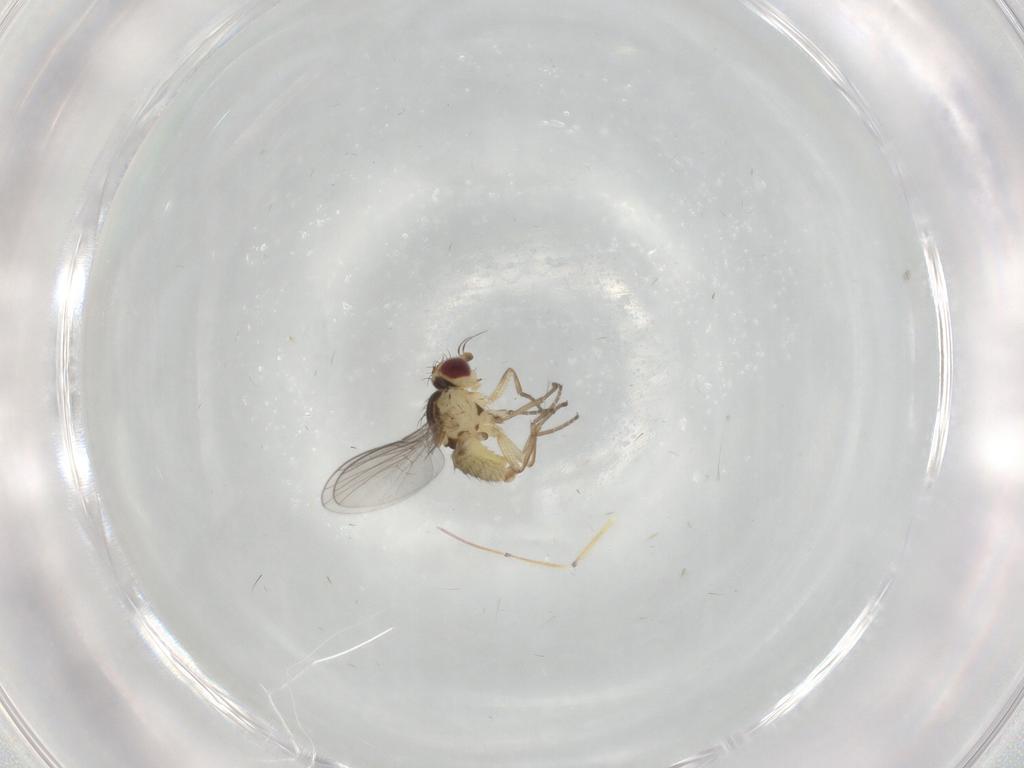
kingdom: Animalia
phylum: Arthropoda
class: Insecta
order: Diptera
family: Agromyzidae
